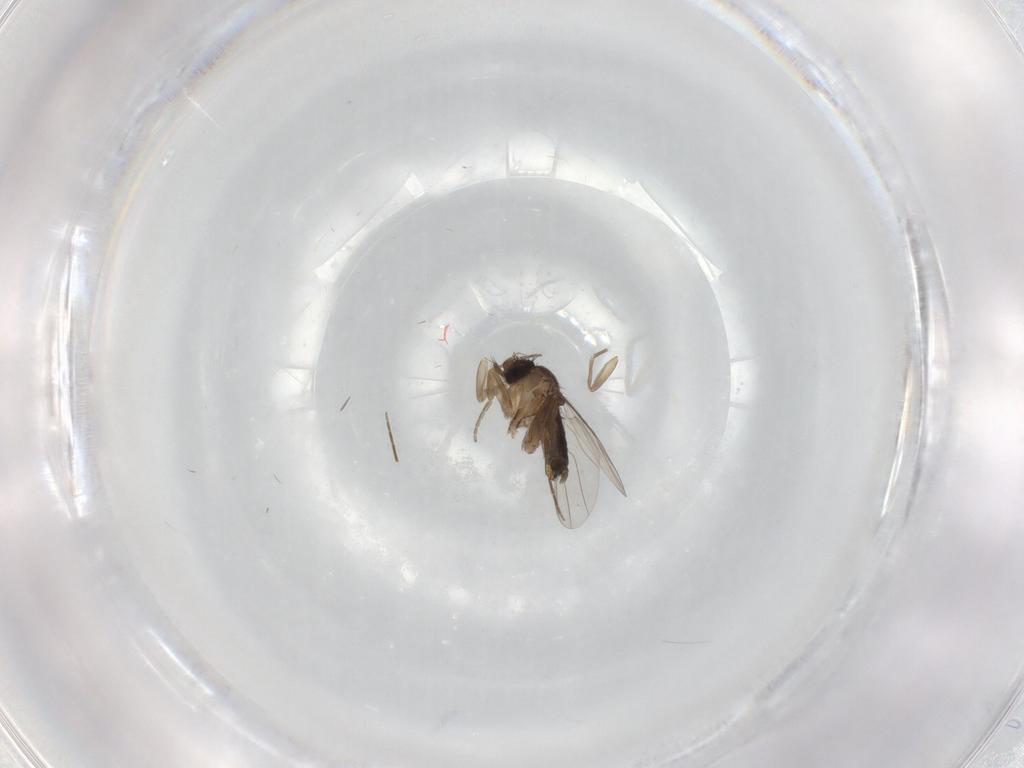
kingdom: Animalia
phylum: Arthropoda
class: Insecta
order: Diptera
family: Phoridae
